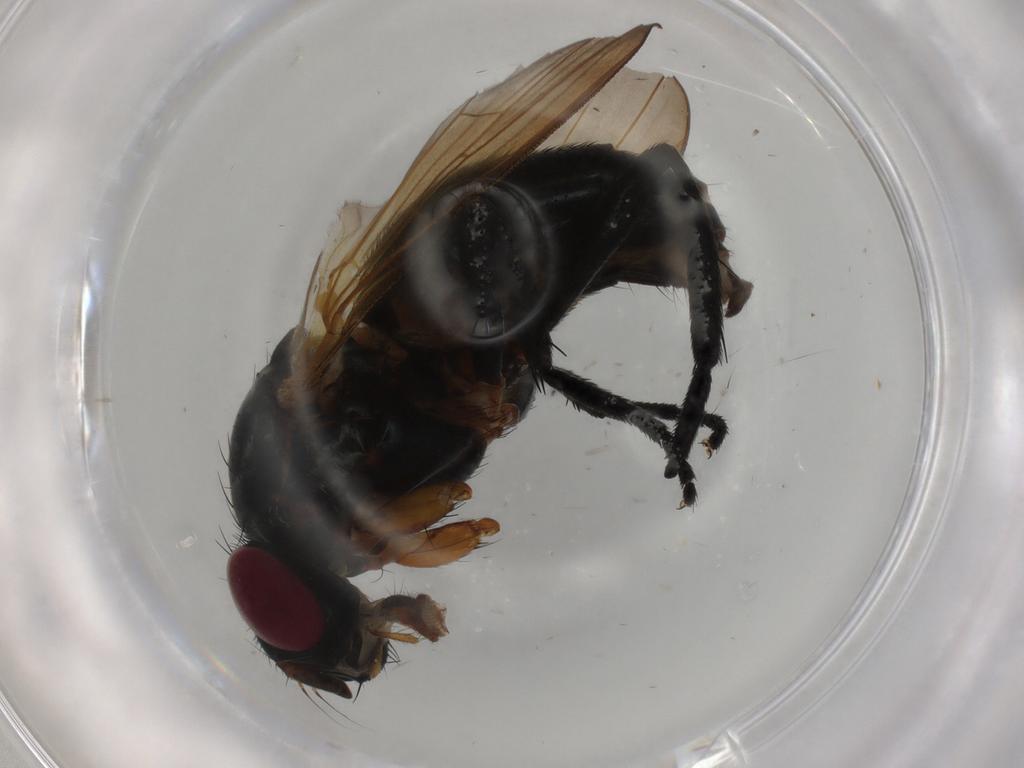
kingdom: Animalia
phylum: Arthropoda
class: Insecta
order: Diptera
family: Fannia
